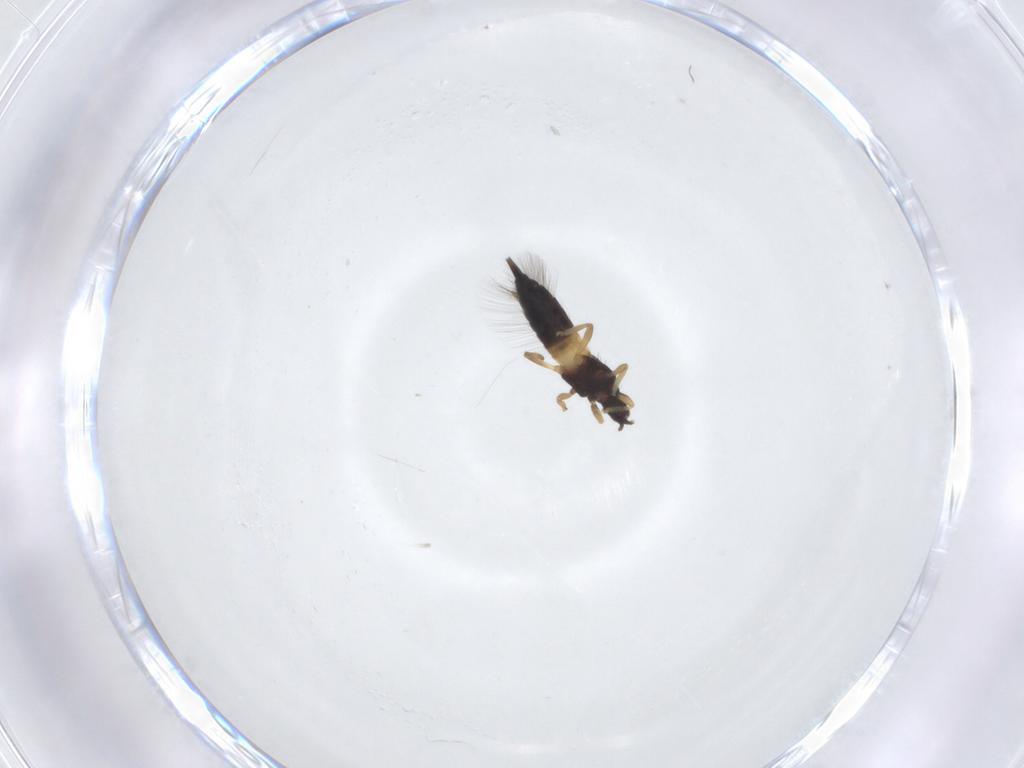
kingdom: Animalia
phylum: Arthropoda
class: Insecta
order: Thysanoptera
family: Phlaeothripidae
